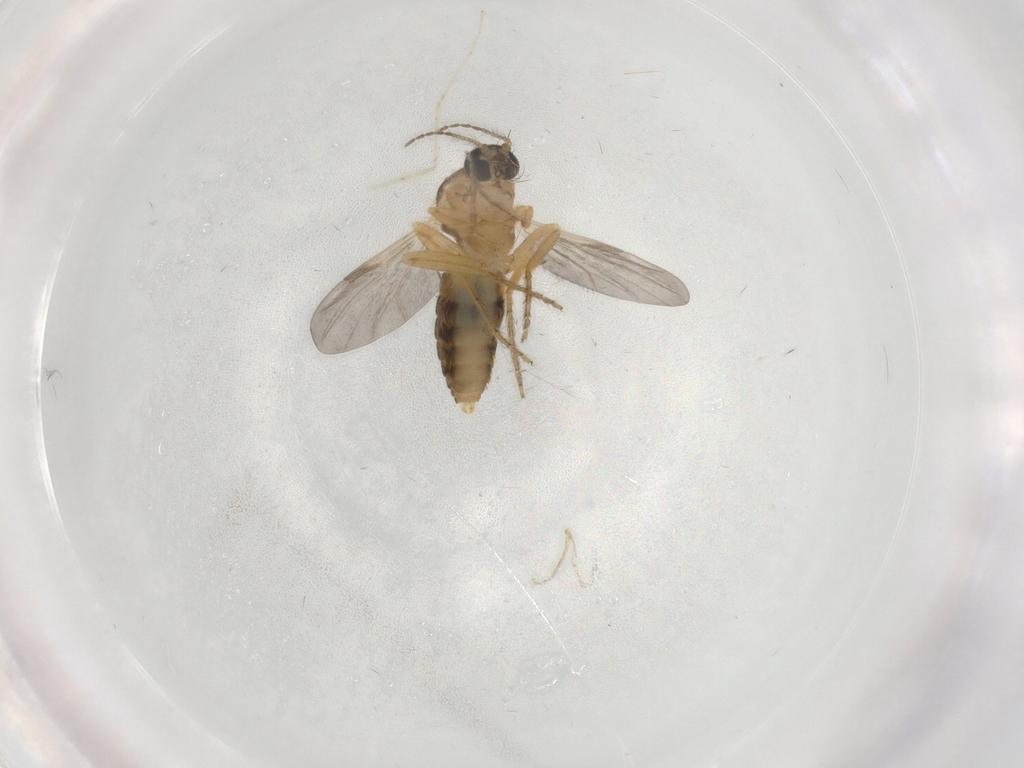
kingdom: Animalia
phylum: Arthropoda
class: Insecta
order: Diptera
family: Ceratopogonidae
